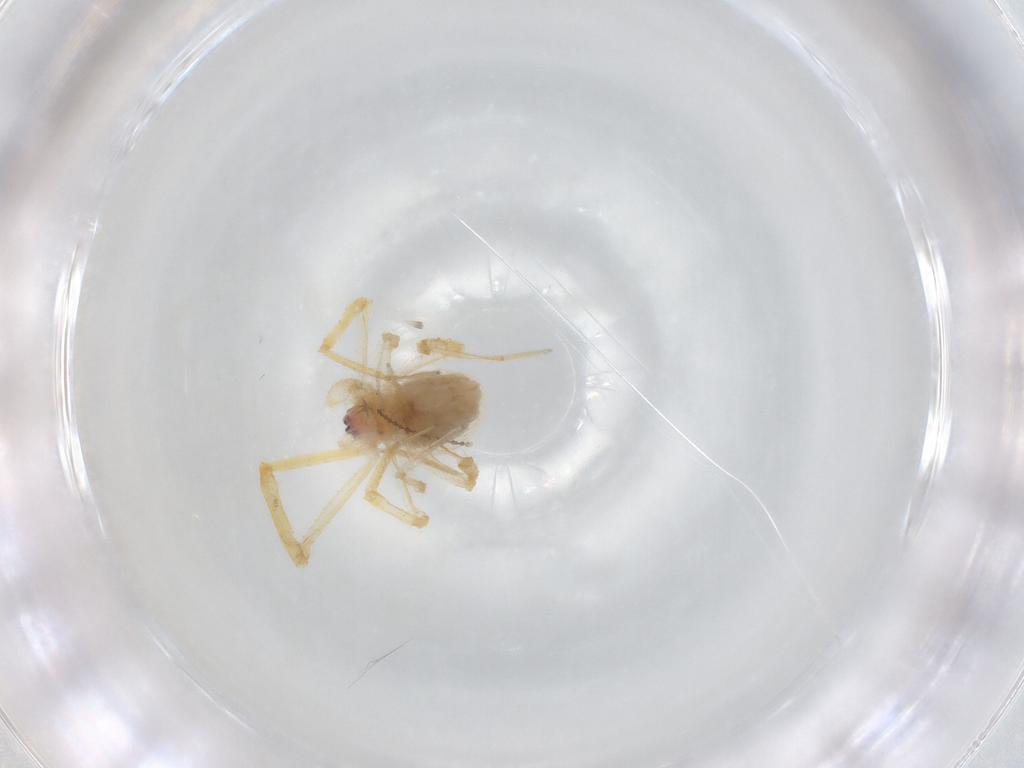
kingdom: Animalia
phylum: Arthropoda
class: Arachnida
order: Araneae
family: Theridiidae
